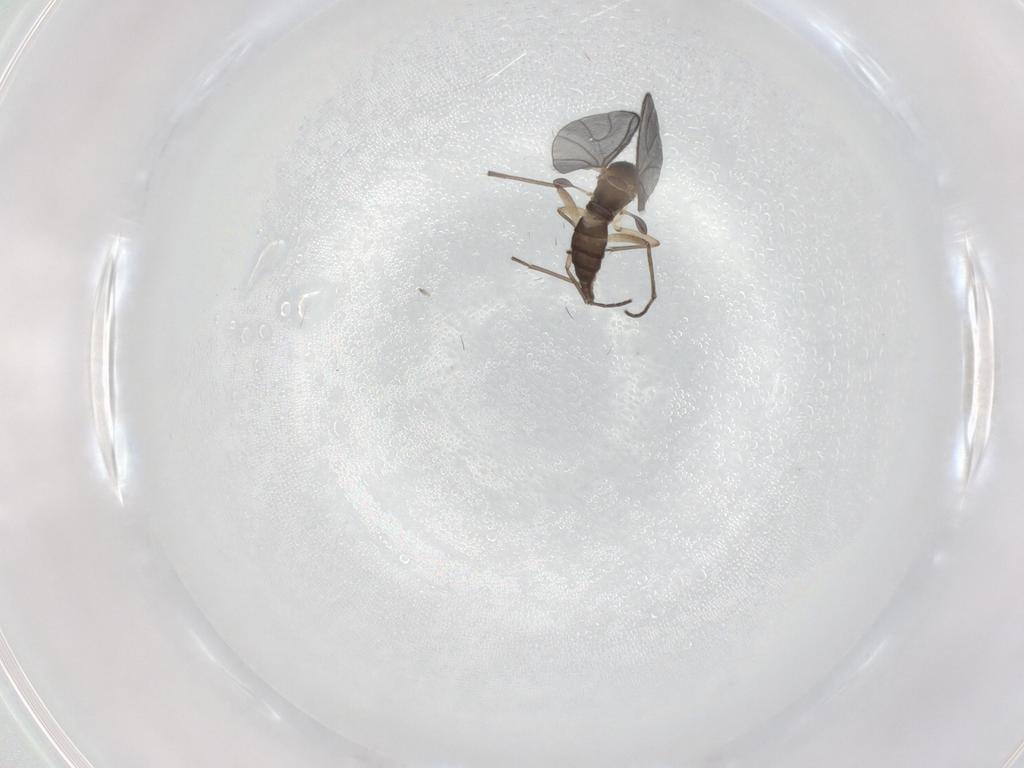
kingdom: Animalia
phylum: Arthropoda
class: Insecta
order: Diptera
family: Sciaridae
